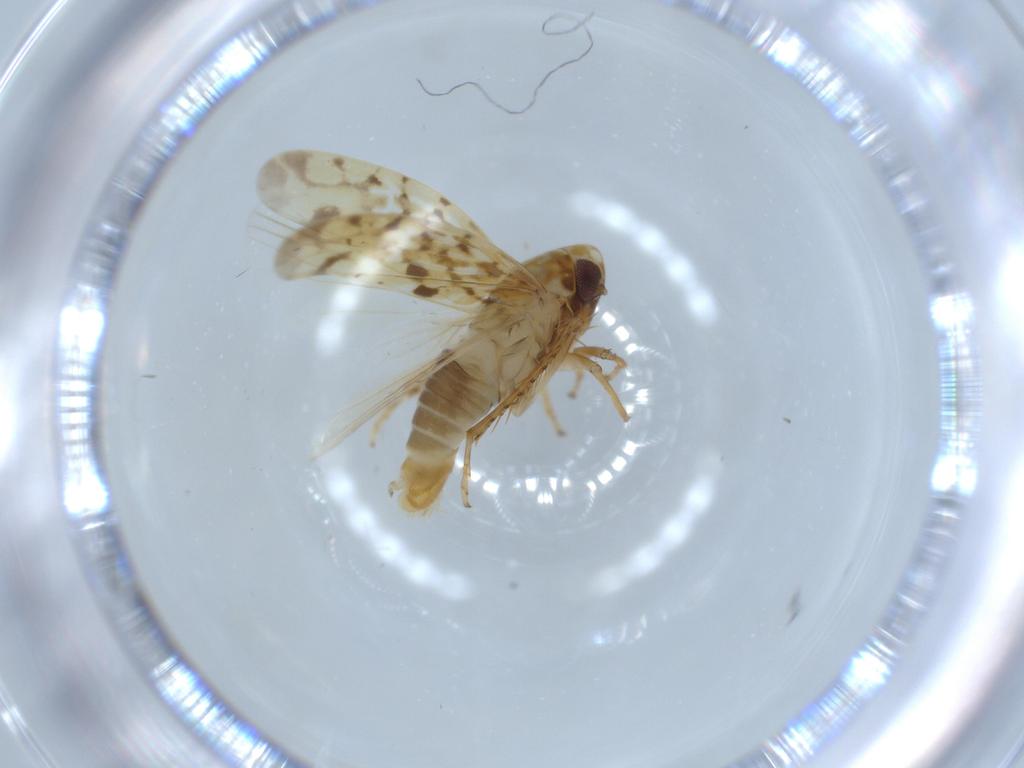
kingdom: Animalia
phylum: Arthropoda
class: Insecta
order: Hemiptera
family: Cicadellidae
